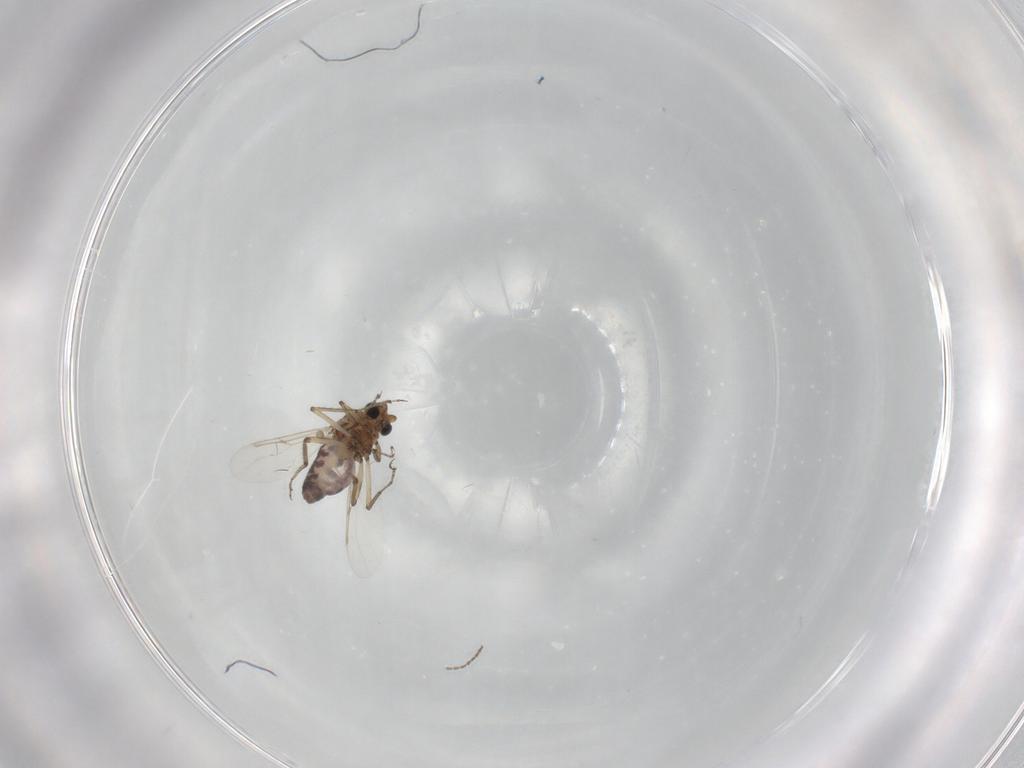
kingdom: Animalia
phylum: Arthropoda
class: Insecta
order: Diptera
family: Ceratopogonidae
